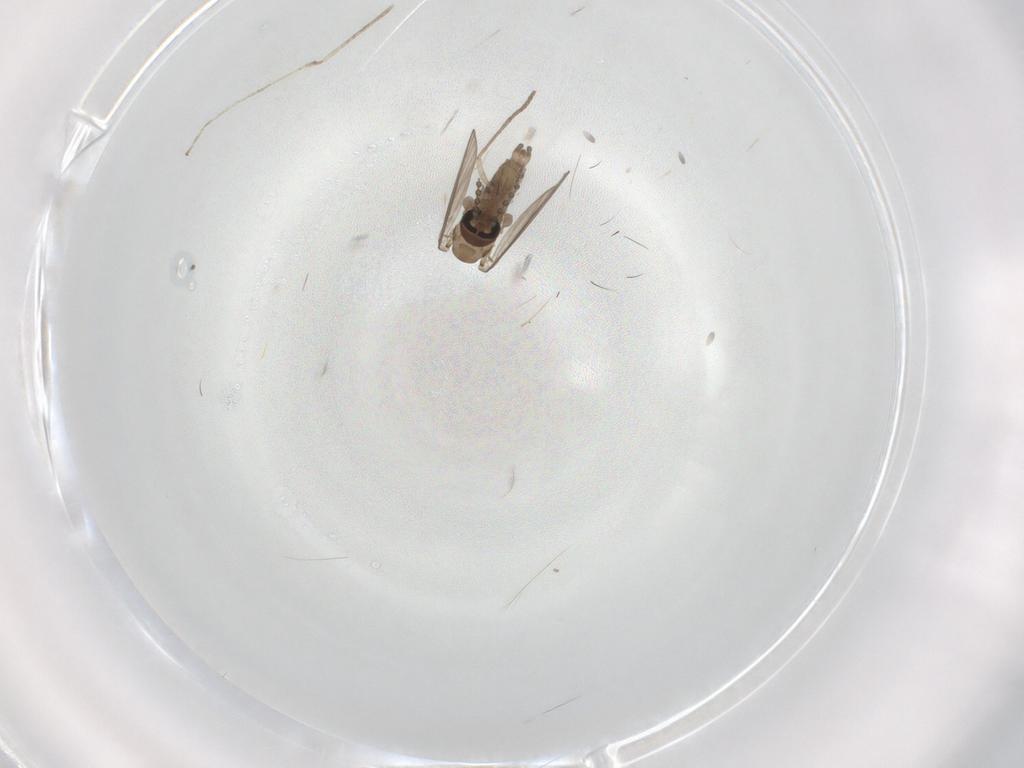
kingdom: Animalia
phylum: Arthropoda
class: Insecta
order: Diptera
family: Psychodidae
